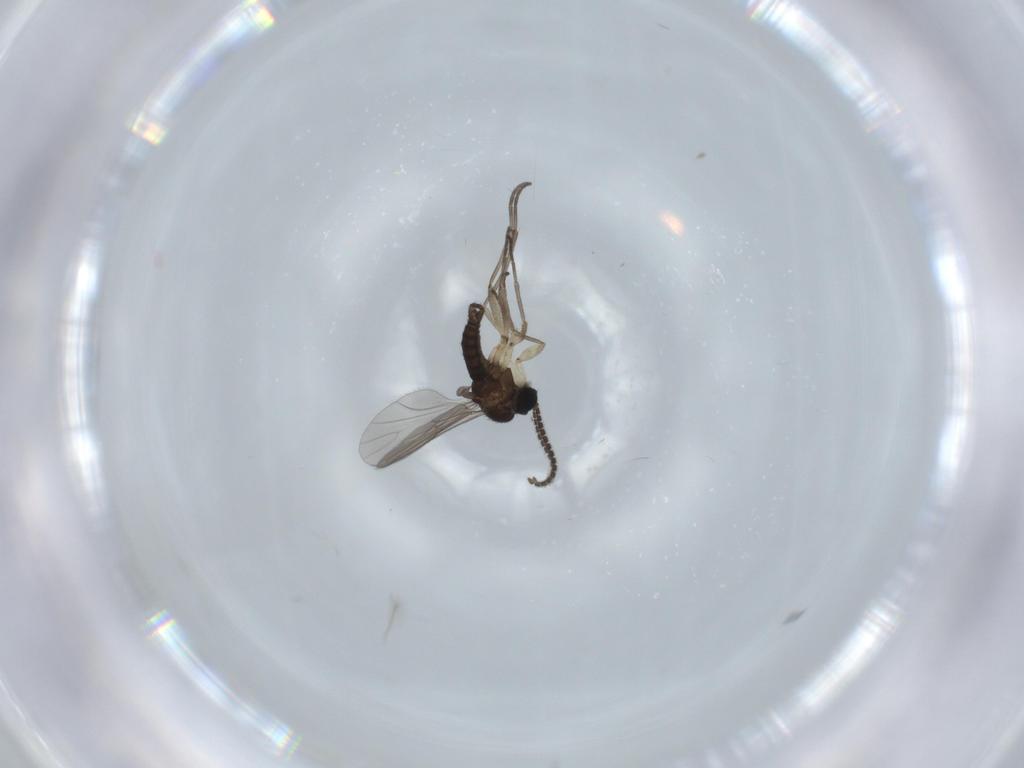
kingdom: Animalia
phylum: Arthropoda
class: Insecta
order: Diptera
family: Sciaridae
